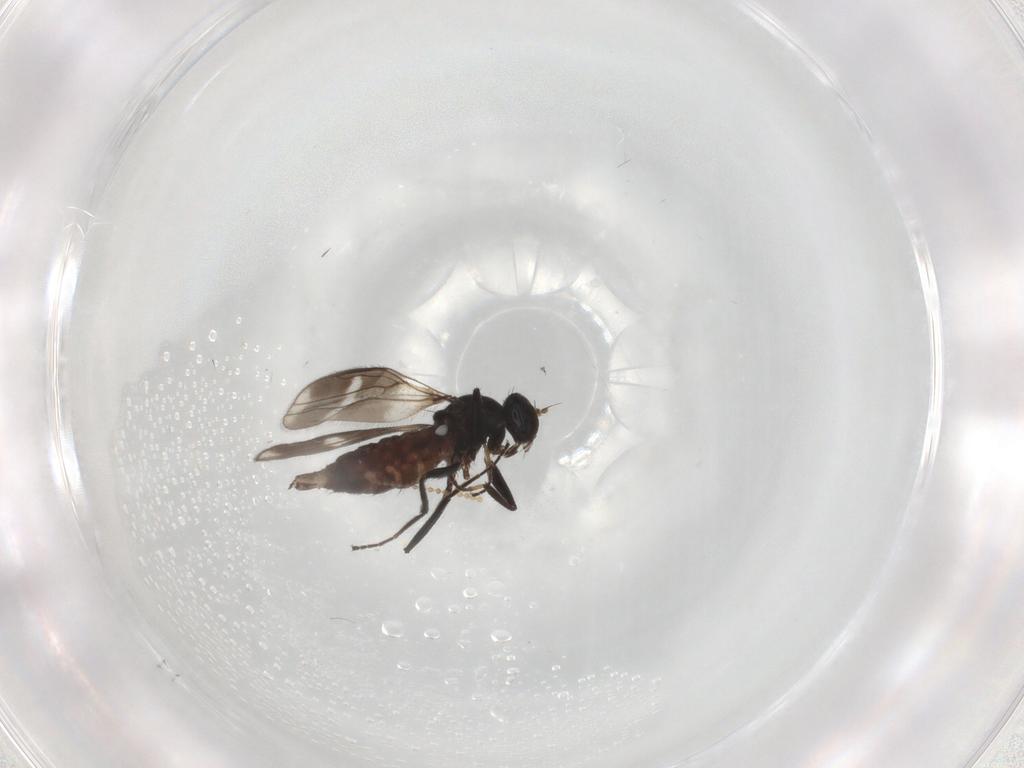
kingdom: Animalia
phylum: Arthropoda
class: Insecta
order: Diptera
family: Hybotidae
